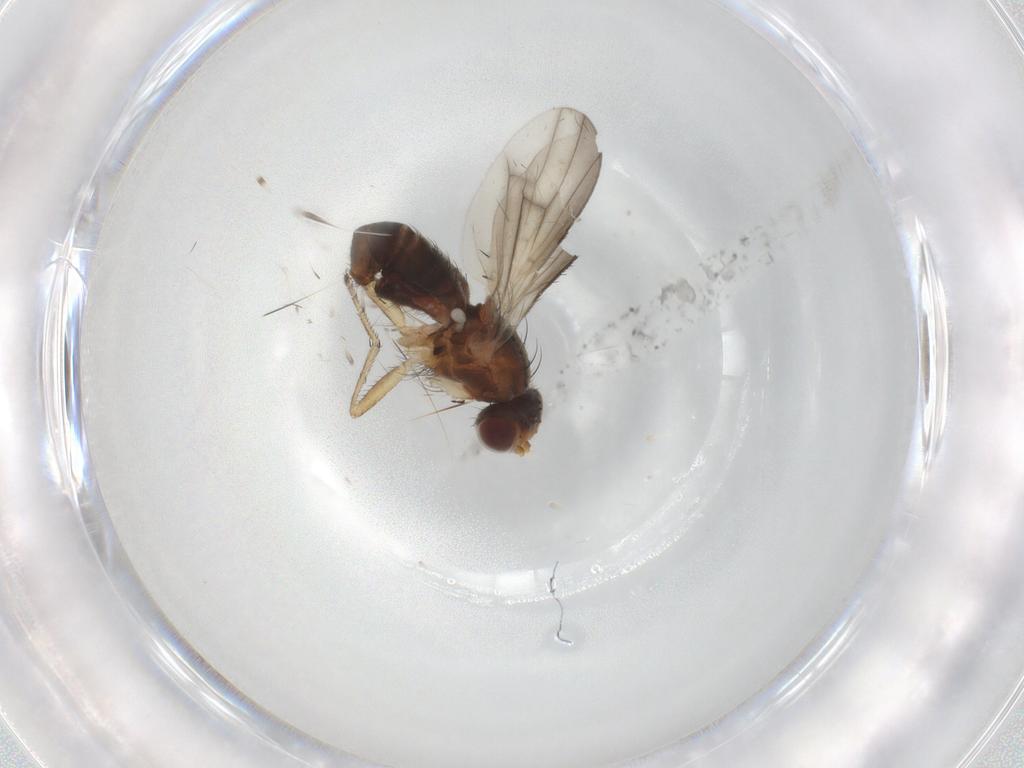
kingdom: Animalia
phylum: Arthropoda
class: Insecta
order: Diptera
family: Heleomyzidae
